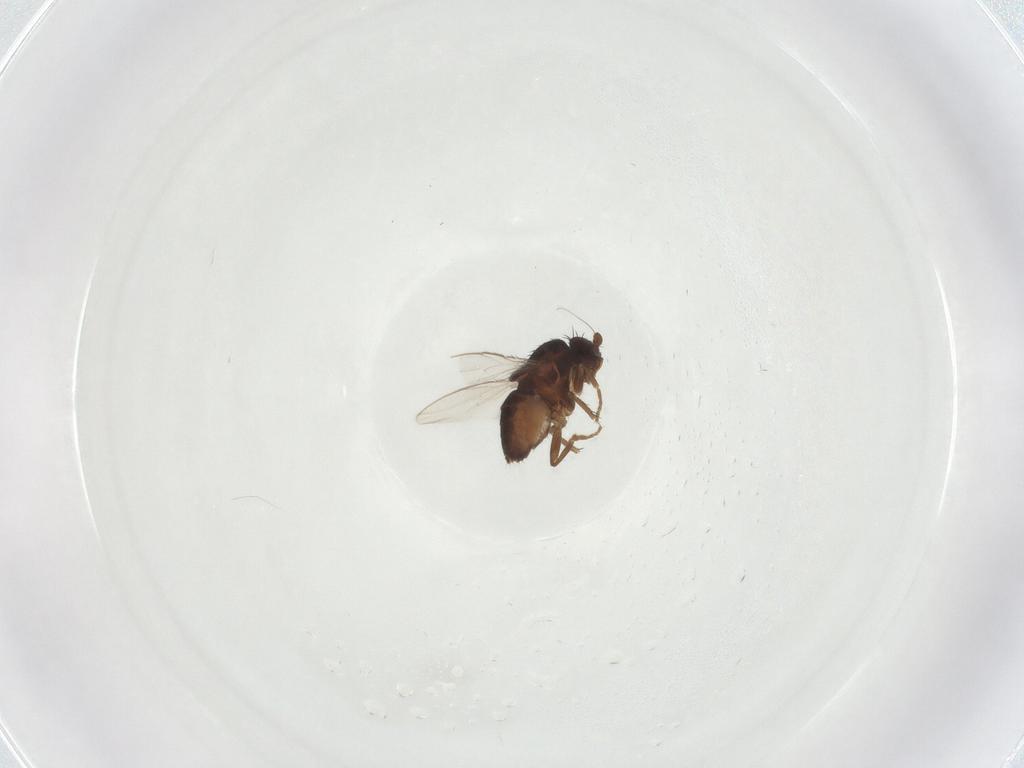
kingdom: Animalia
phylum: Arthropoda
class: Insecta
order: Diptera
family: Sphaeroceridae
